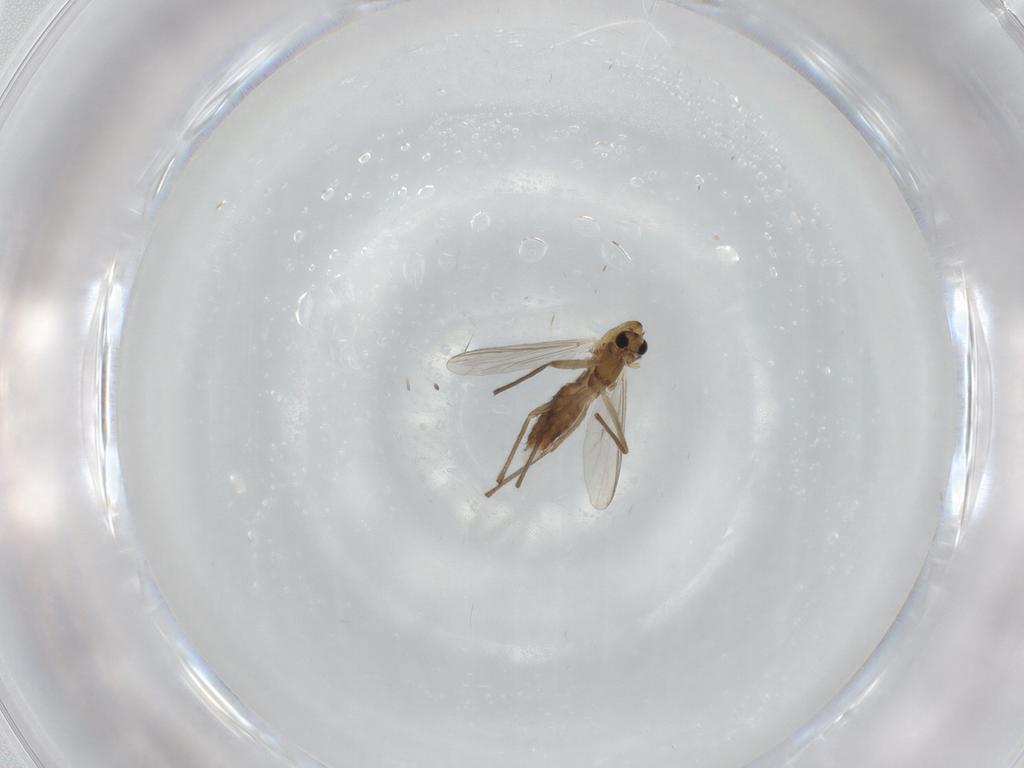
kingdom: Animalia
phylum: Arthropoda
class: Insecta
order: Diptera
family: Chironomidae
